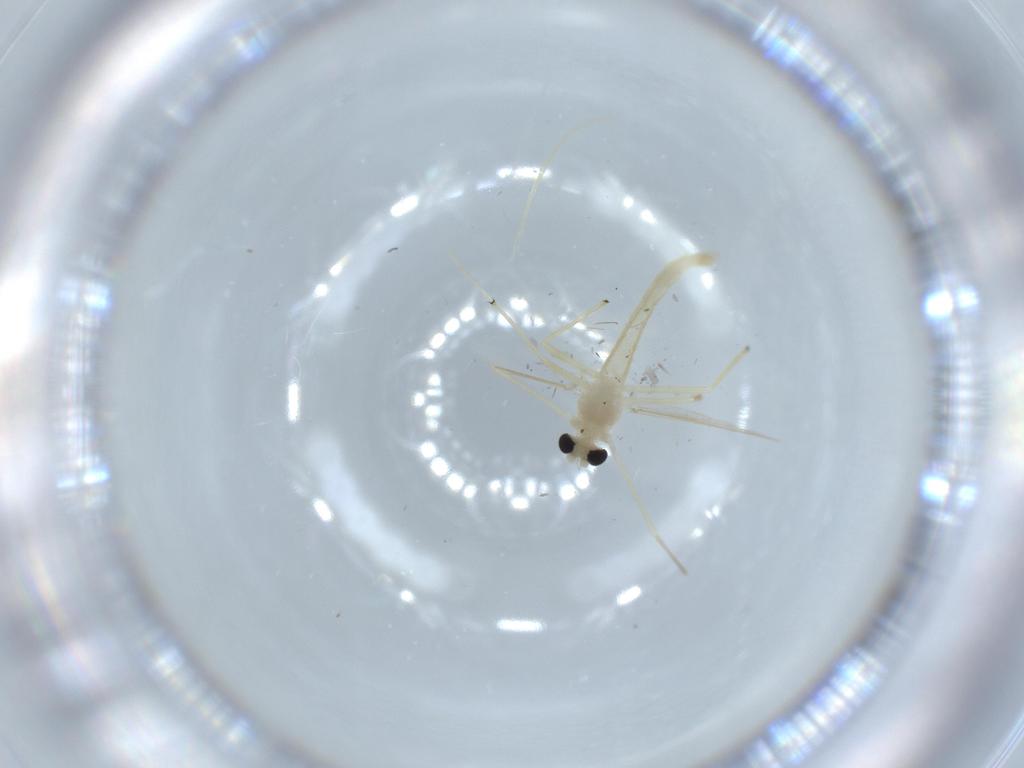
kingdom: Animalia
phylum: Arthropoda
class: Insecta
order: Diptera
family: Chironomidae
